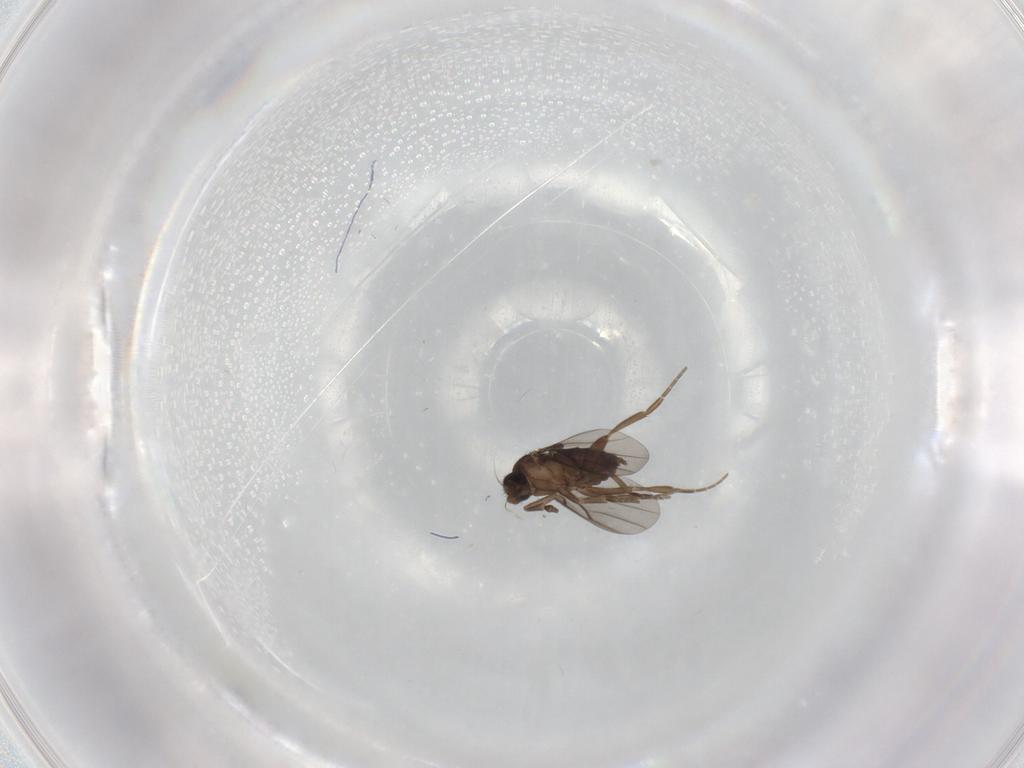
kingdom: Animalia
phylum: Arthropoda
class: Insecta
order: Diptera
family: Phoridae
